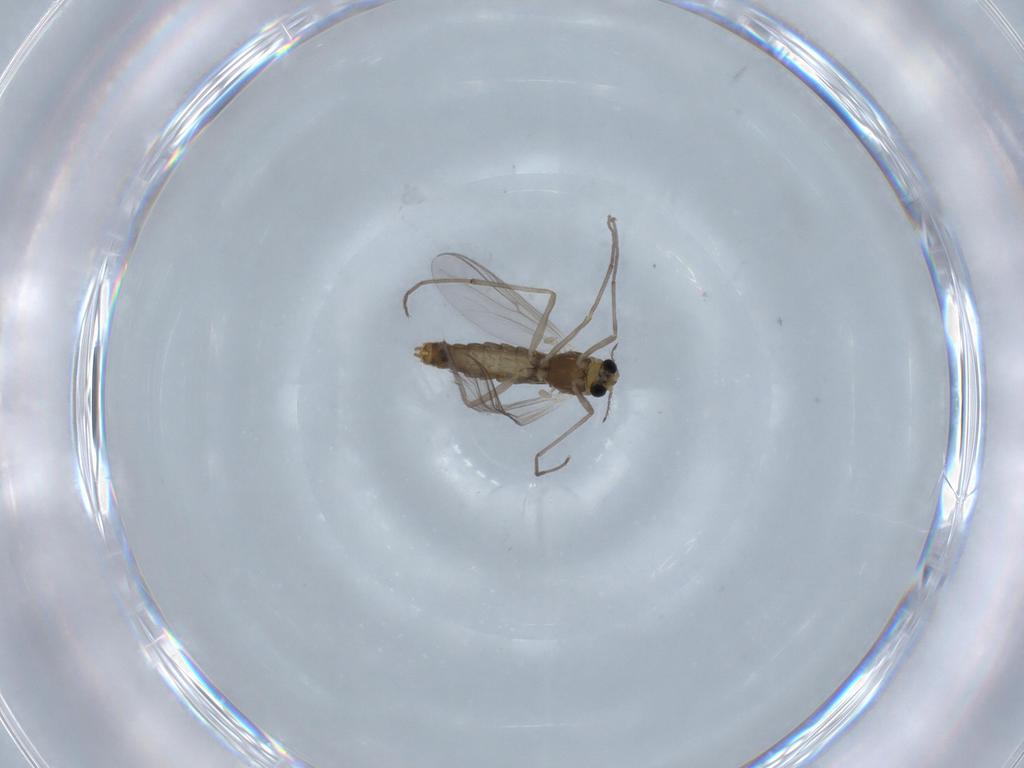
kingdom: Animalia
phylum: Arthropoda
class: Insecta
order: Diptera
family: Chironomidae
